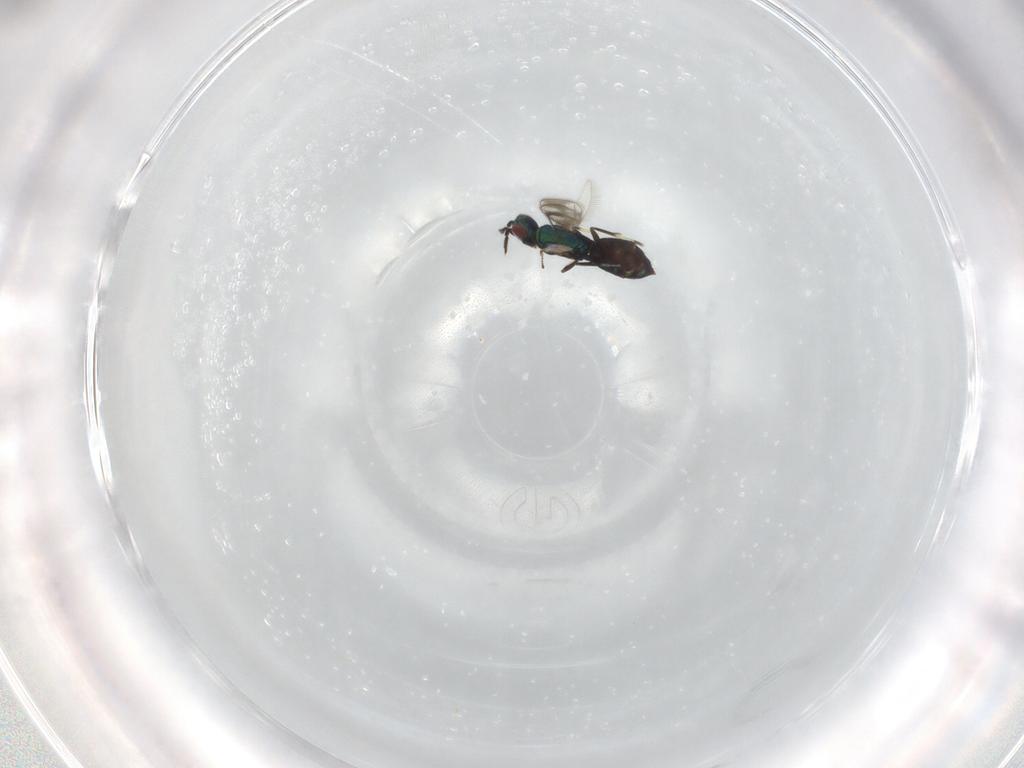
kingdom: Animalia
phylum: Arthropoda
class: Insecta
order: Hymenoptera
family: Eulophidae
